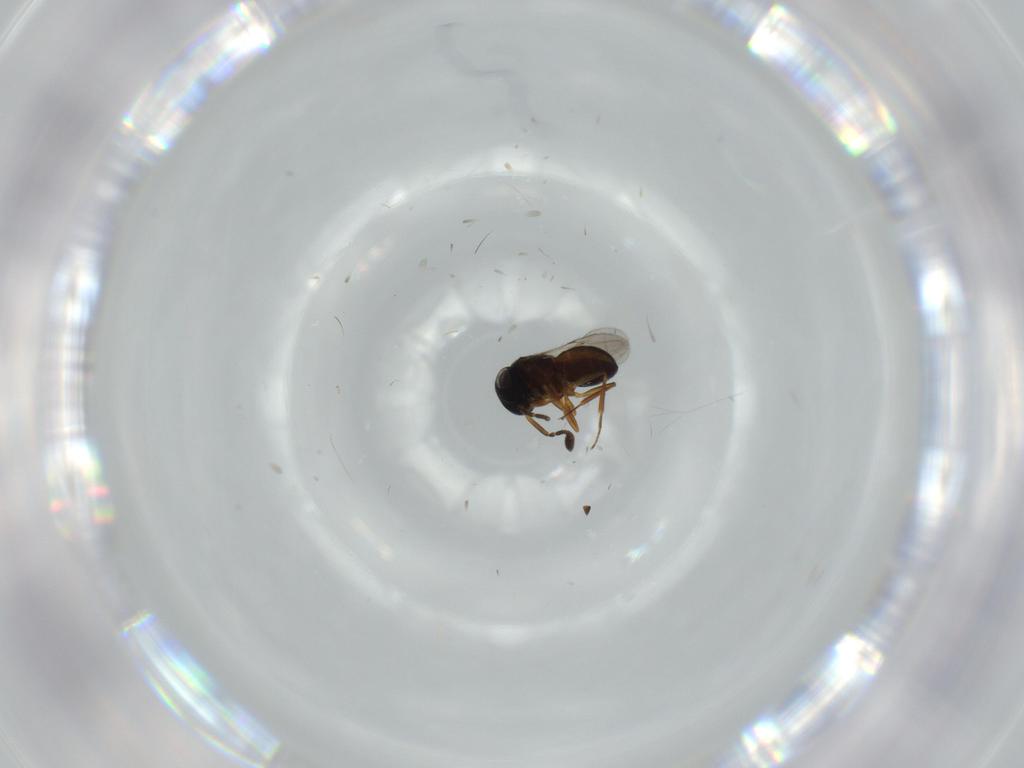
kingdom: Animalia
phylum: Arthropoda
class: Insecta
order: Hymenoptera
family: Scelionidae
